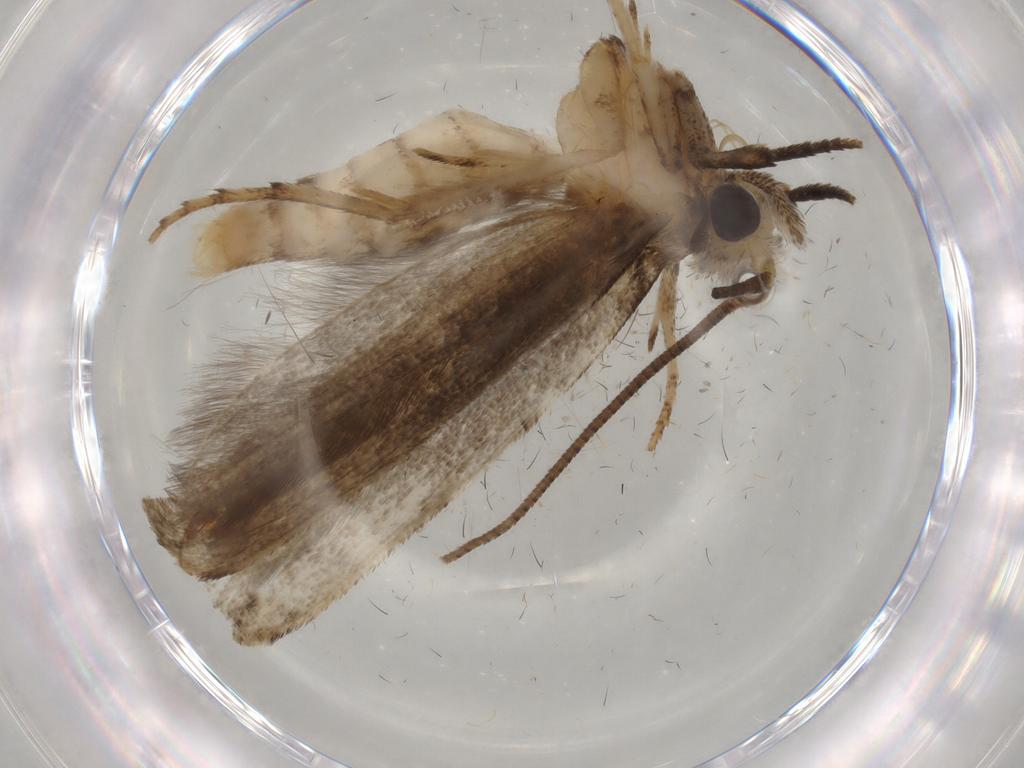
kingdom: Animalia
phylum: Arthropoda
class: Insecta
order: Lepidoptera
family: Yponomeutidae
